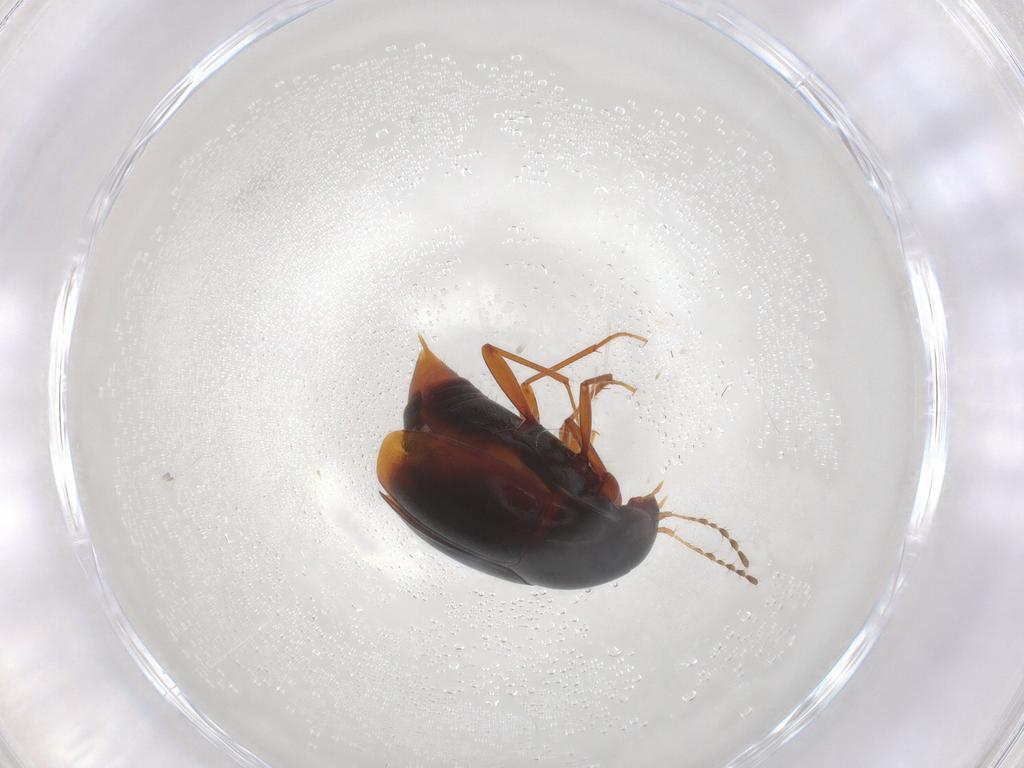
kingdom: Animalia
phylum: Arthropoda
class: Insecta
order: Coleoptera
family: Staphylinidae
